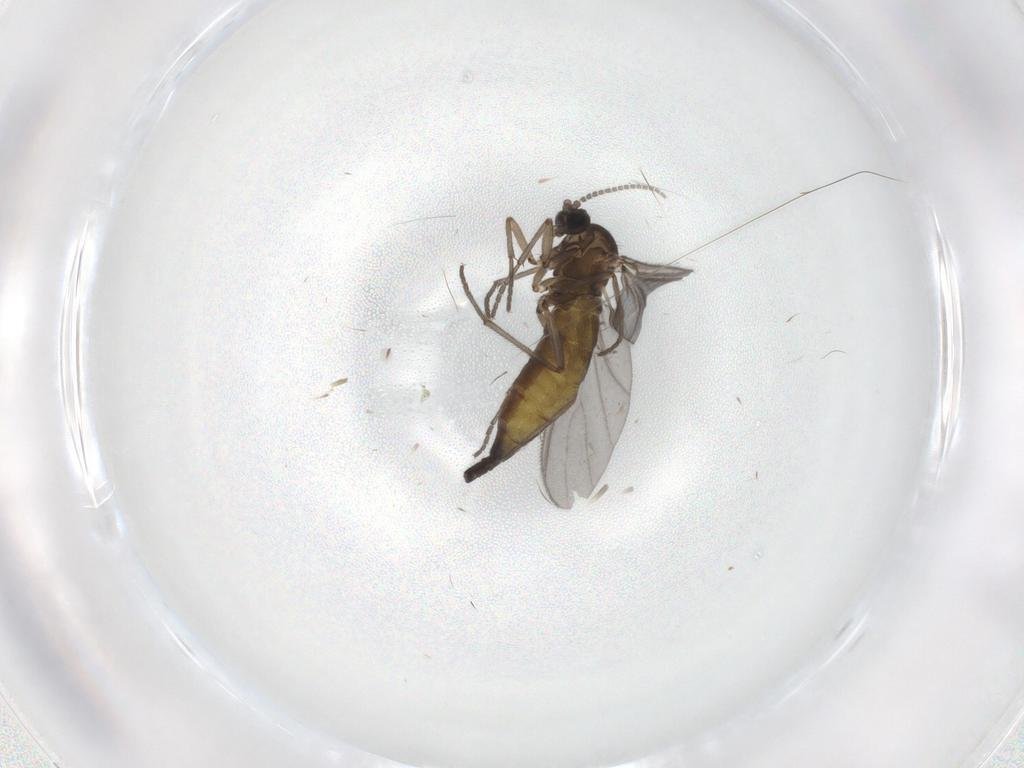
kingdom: Animalia
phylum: Arthropoda
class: Insecta
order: Diptera
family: Sciaridae
